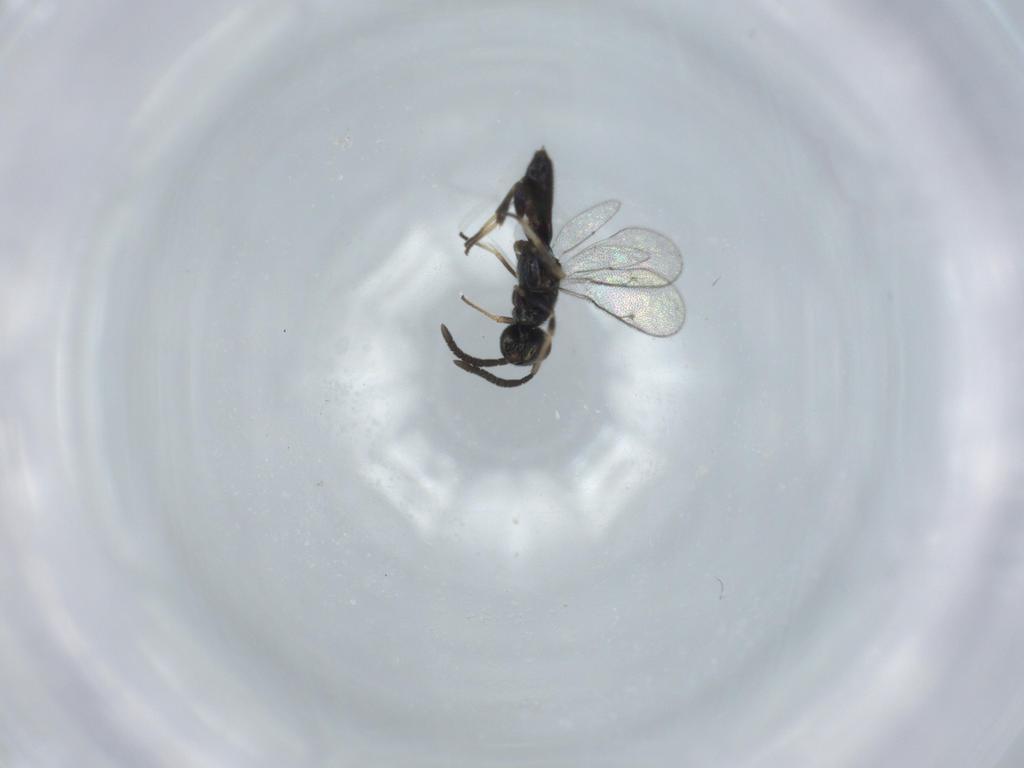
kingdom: Animalia
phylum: Arthropoda
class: Insecta
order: Hymenoptera
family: Eupelmidae
